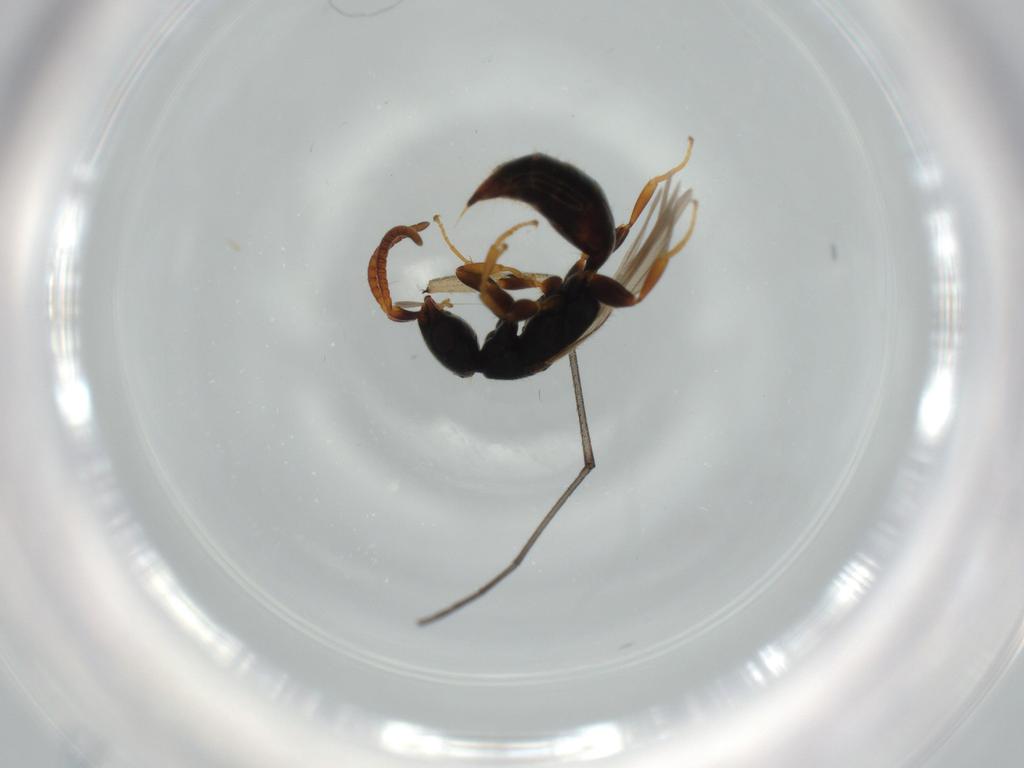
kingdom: Animalia
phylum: Arthropoda
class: Insecta
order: Hymenoptera
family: Bethylidae
